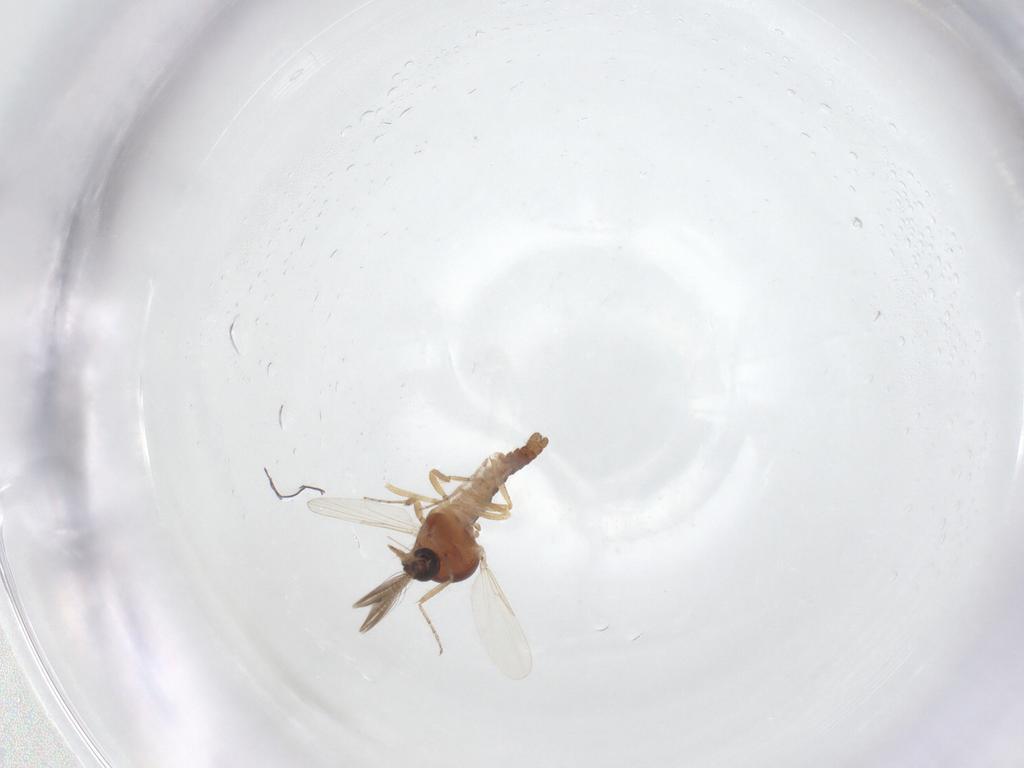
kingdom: Animalia
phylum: Arthropoda
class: Insecta
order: Diptera
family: Ceratopogonidae
